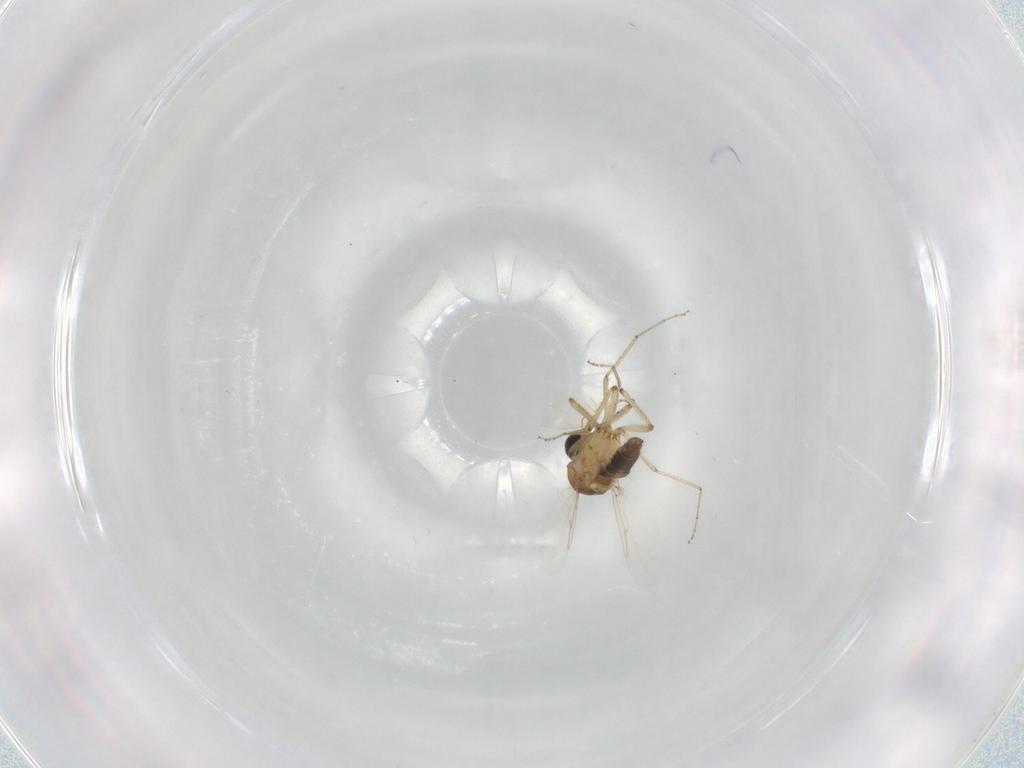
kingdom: Animalia
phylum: Arthropoda
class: Insecta
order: Diptera
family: Ceratopogonidae
